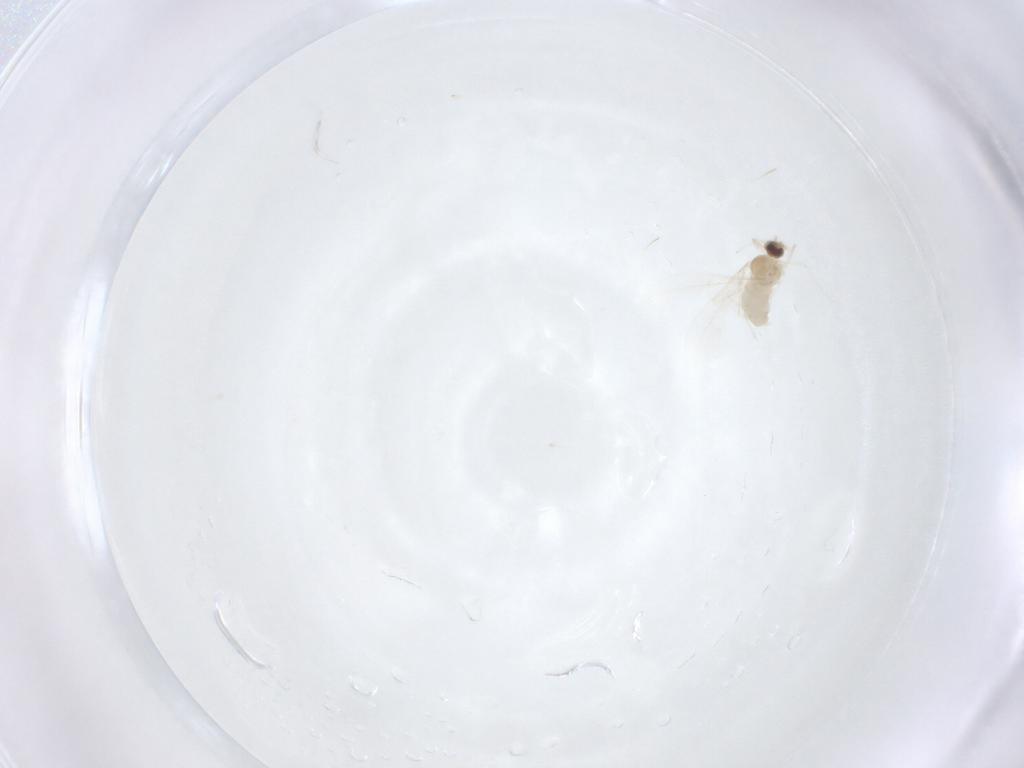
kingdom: Animalia
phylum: Arthropoda
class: Insecta
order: Diptera
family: Cecidomyiidae
